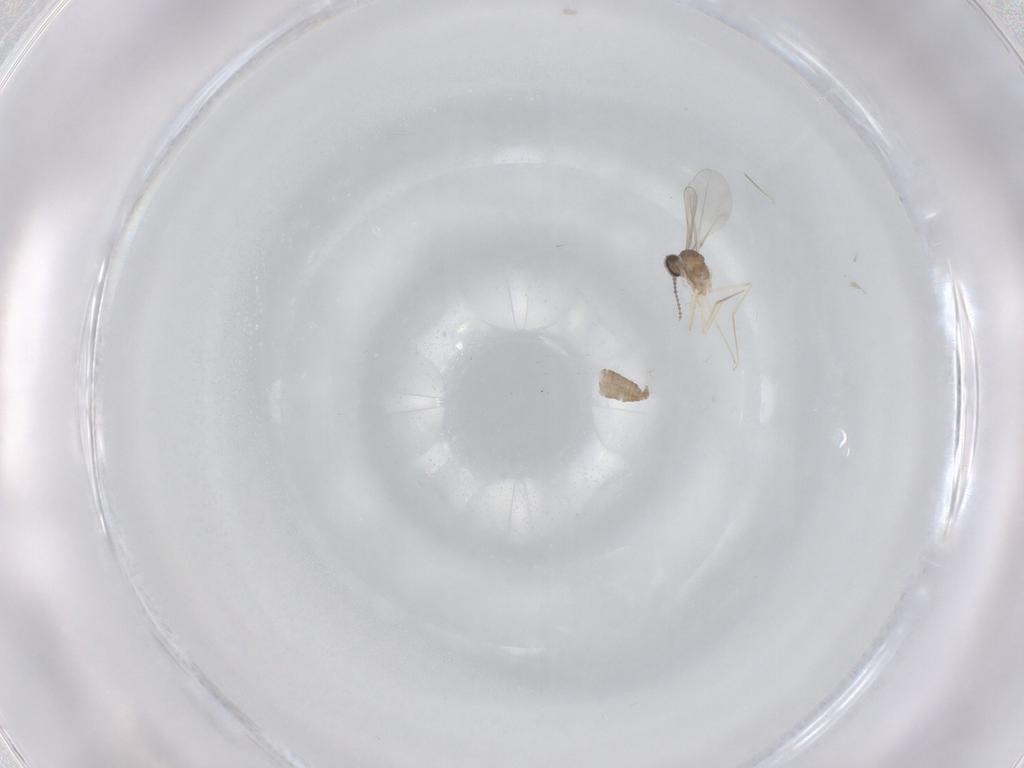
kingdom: Animalia
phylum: Arthropoda
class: Insecta
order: Diptera
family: Cecidomyiidae
